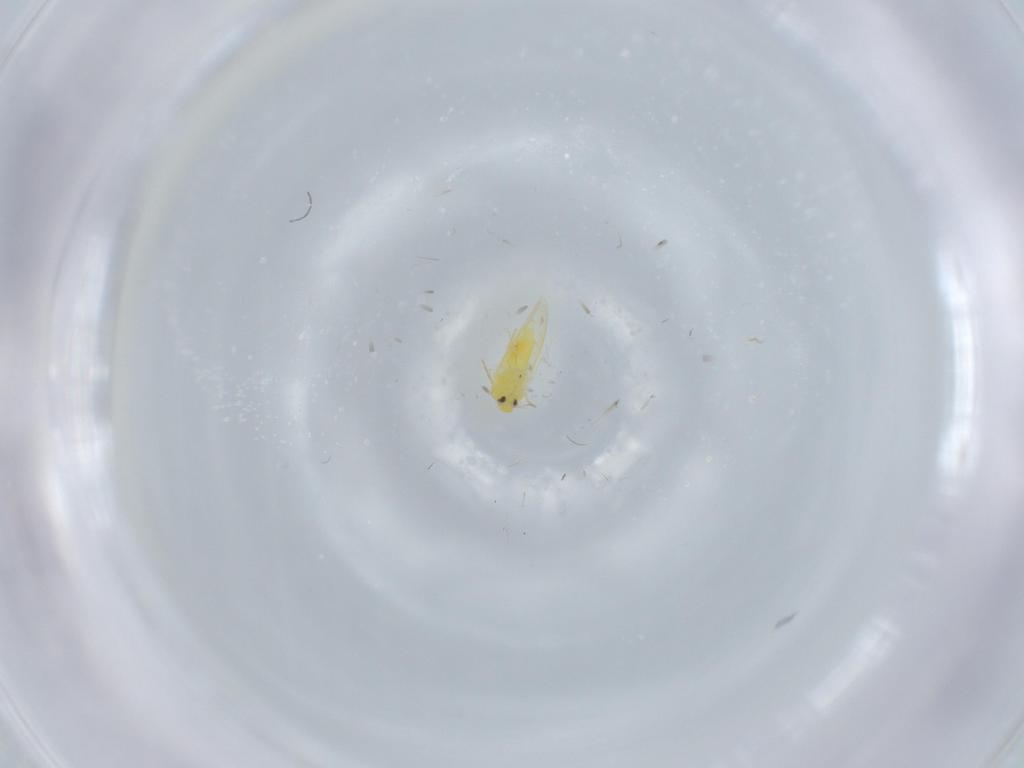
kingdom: Animalia
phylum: Arthropoda
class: Insecta
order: Hemiptera
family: Aleyrodidae
